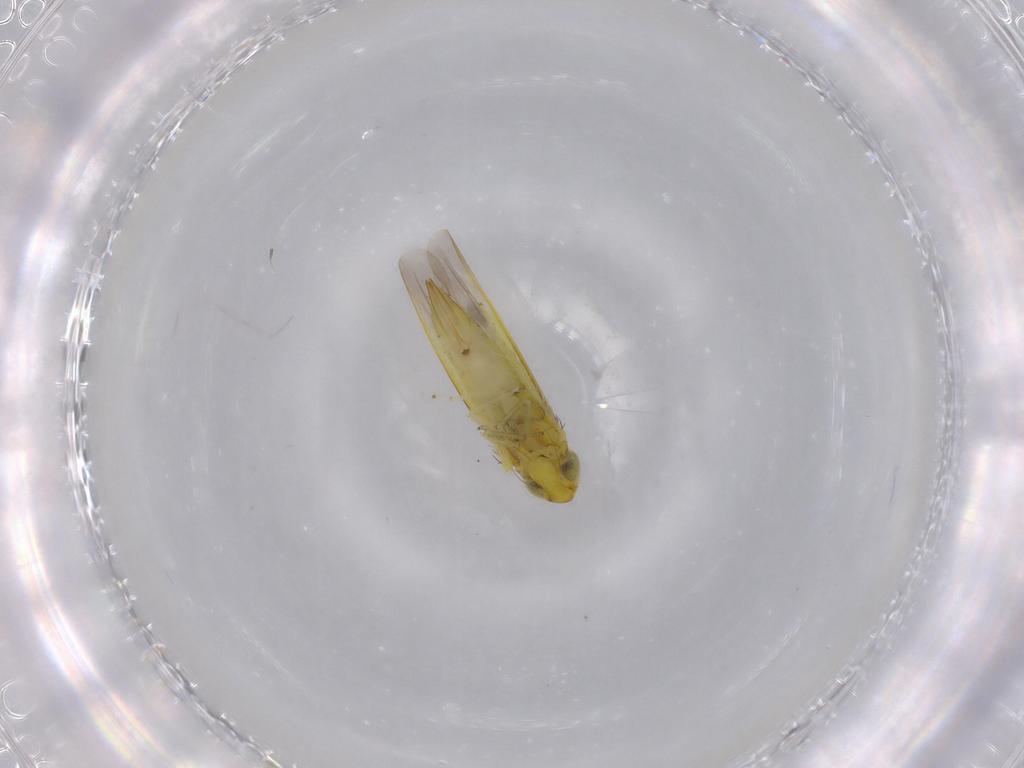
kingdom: Animalia
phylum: Arthropoda
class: Insecta
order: Hemiptera
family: Cicadellidae
